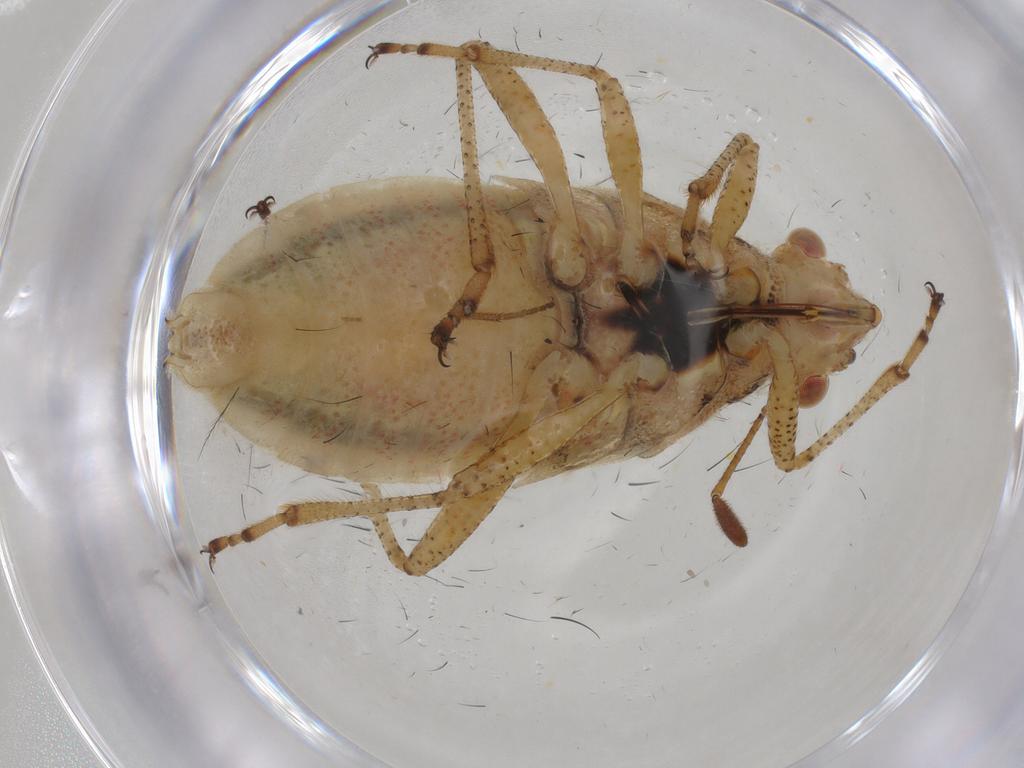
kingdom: Animalia
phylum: Arthropoda
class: Insecta
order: Hemiptera
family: Rhopalidae
